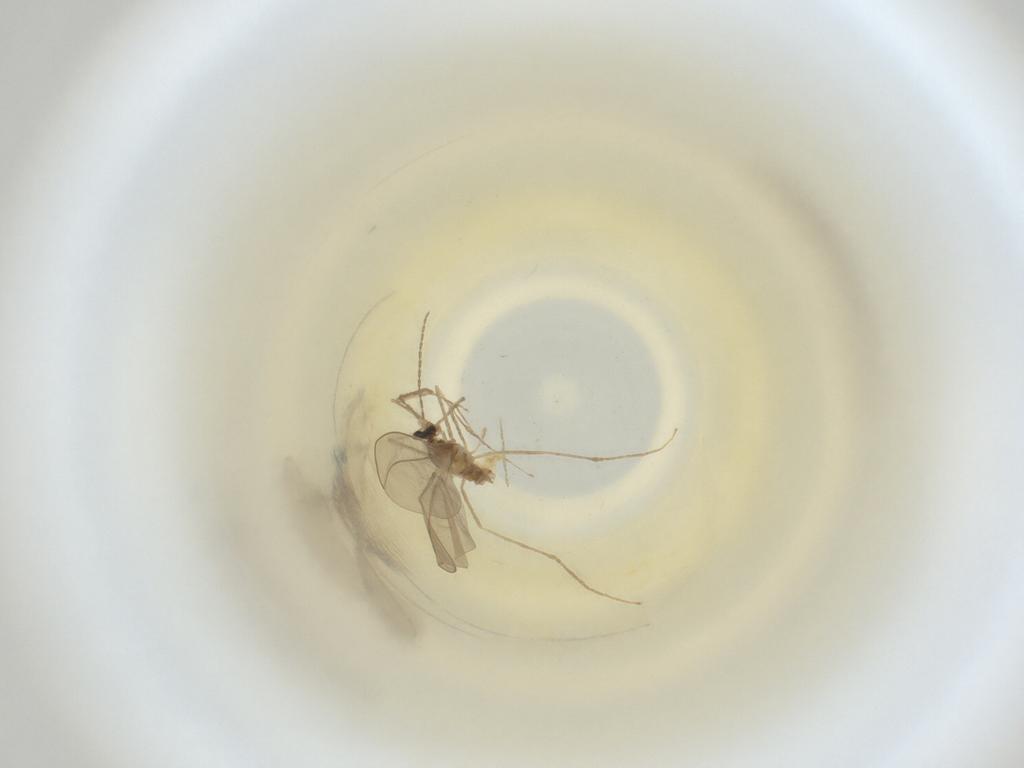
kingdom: Animalia
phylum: Arthropoda
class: Insecta
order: Diptera
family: Cecidomyiidae
